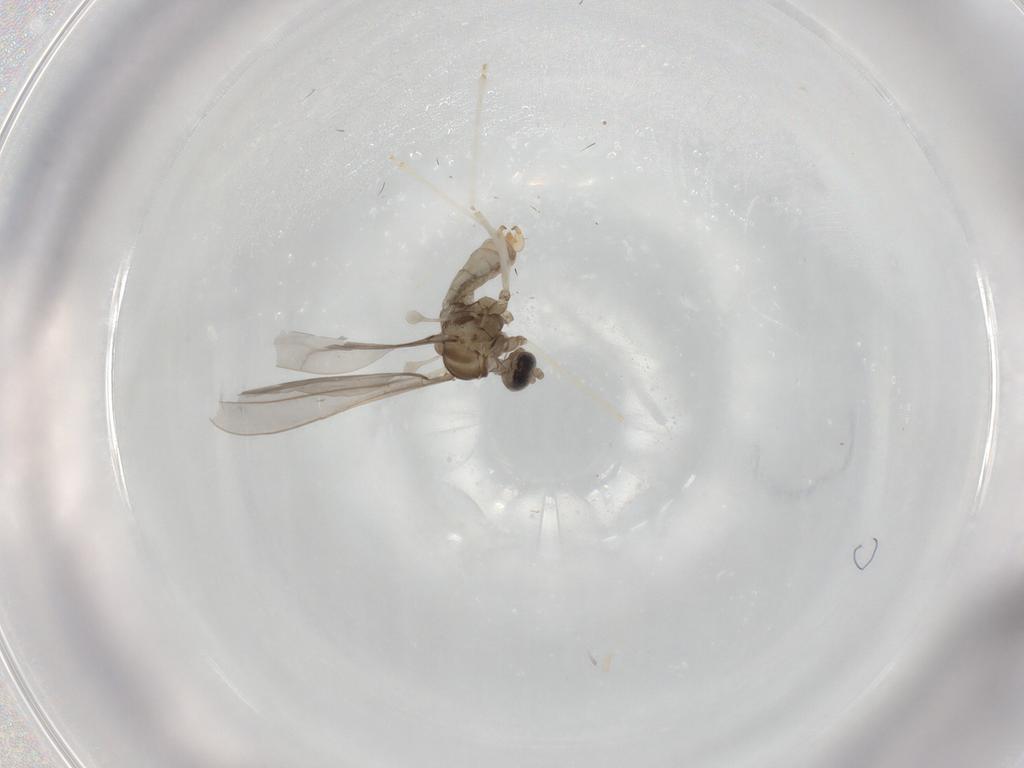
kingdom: Animalia
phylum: Arthropoda
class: Insecta
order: Diptera
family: Cecidomyiidae
